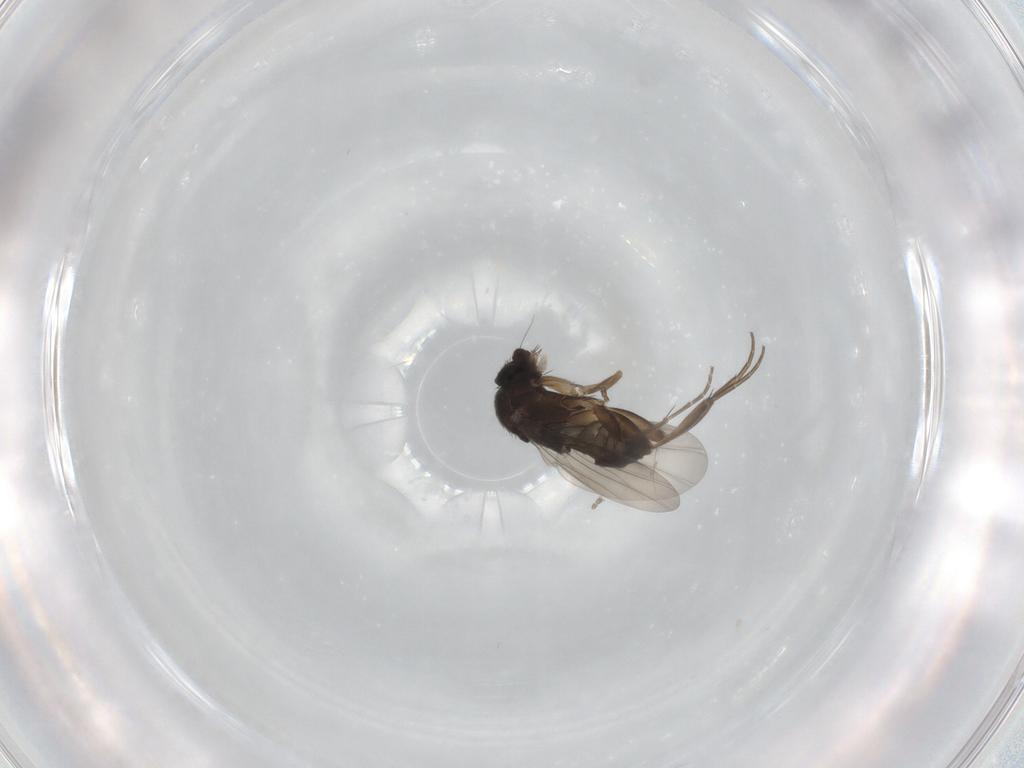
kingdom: Animalia
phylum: Arthropoda
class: Insecta
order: Diptera
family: Phoridae
